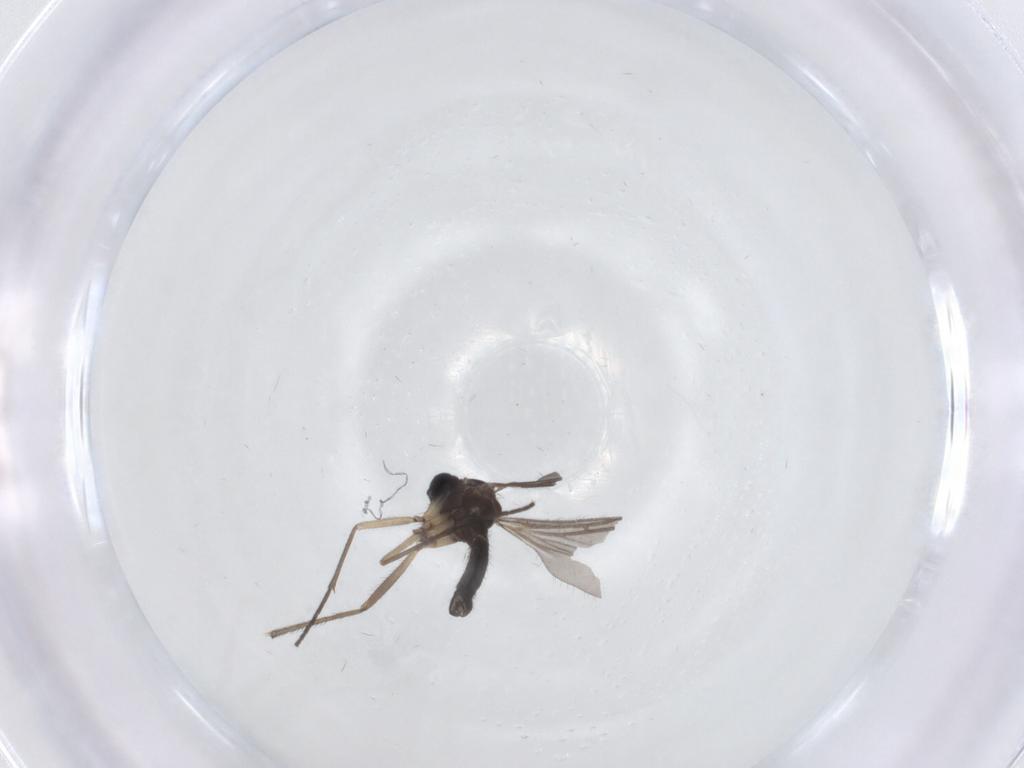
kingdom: Animalia
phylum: Arthropoda
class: Insecta
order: Diptera
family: Sciaridae
